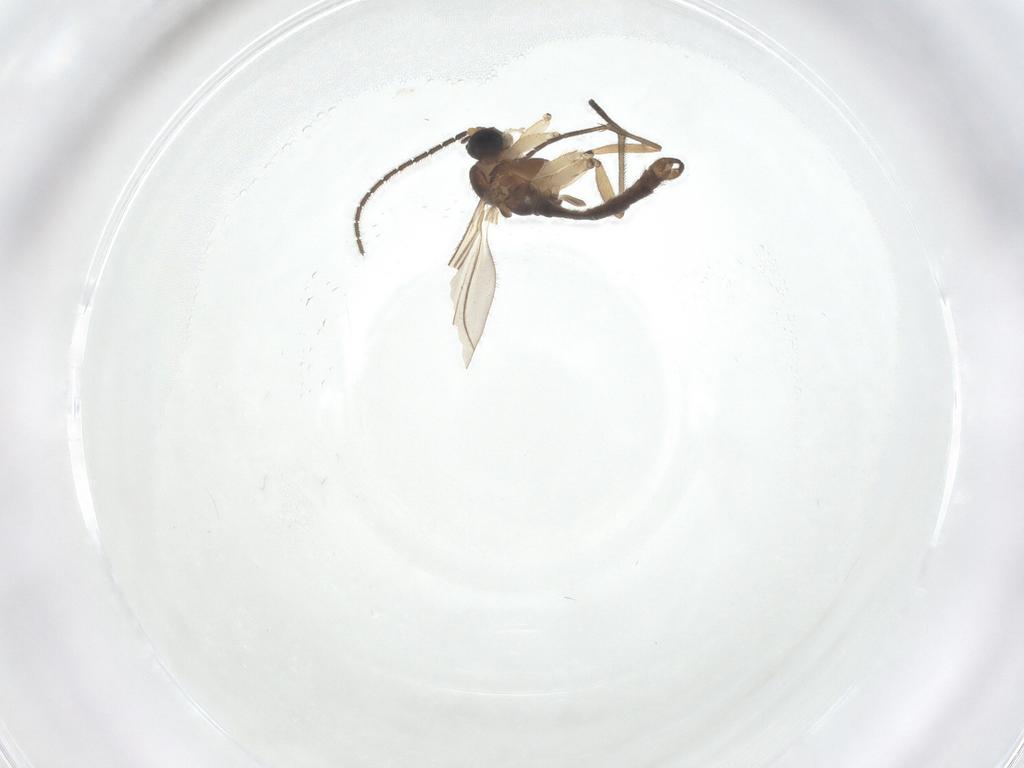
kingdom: Animalia
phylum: Arthropoda
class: Insecta
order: Diptera
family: Sciaridae
